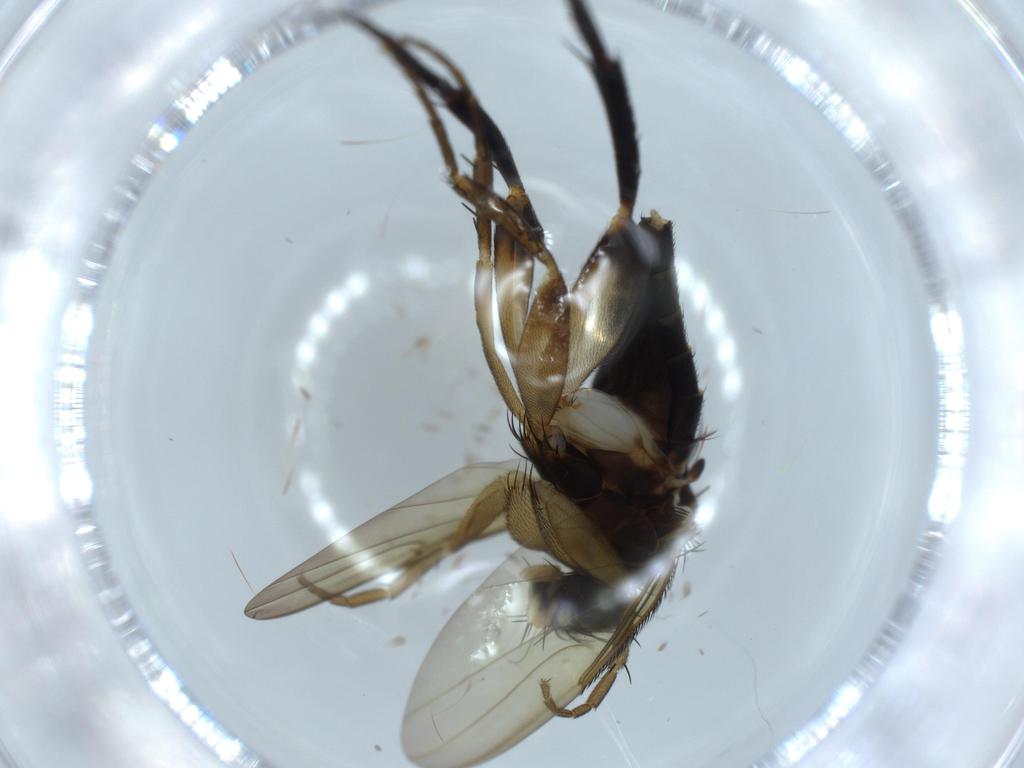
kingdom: Animalia
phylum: Arthropoda
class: Insecta
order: Diptera
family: Phoridae
